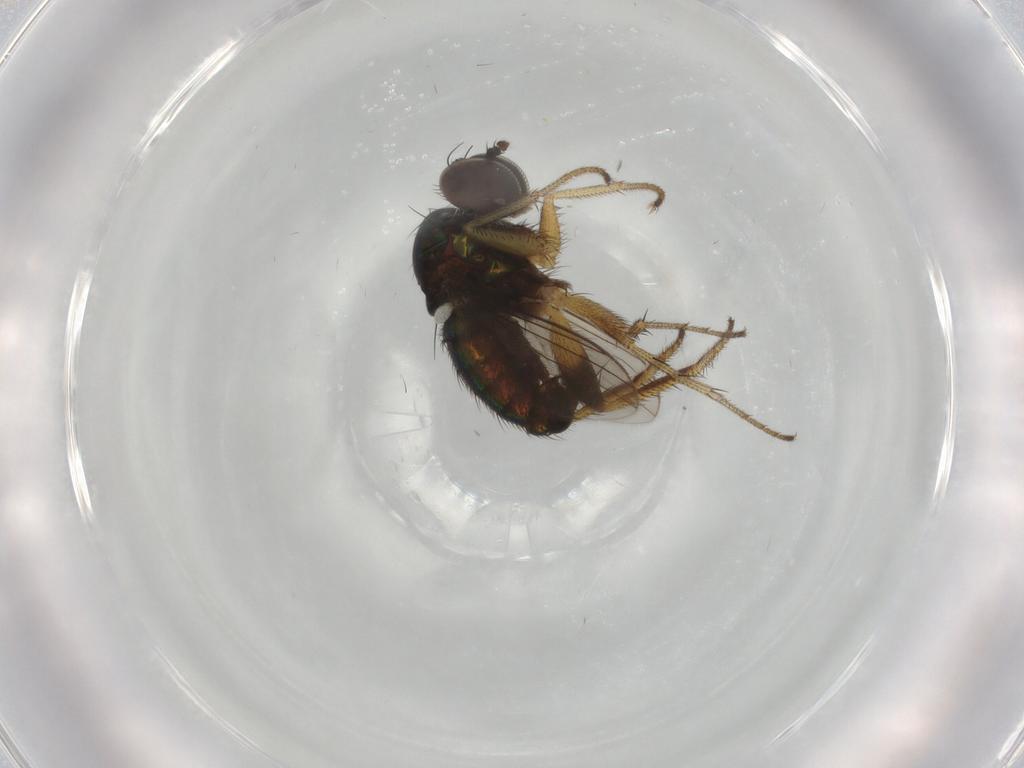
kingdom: Animalia
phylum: Arthropoda
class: Insecta
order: Diptera
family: Dolichopodidae
